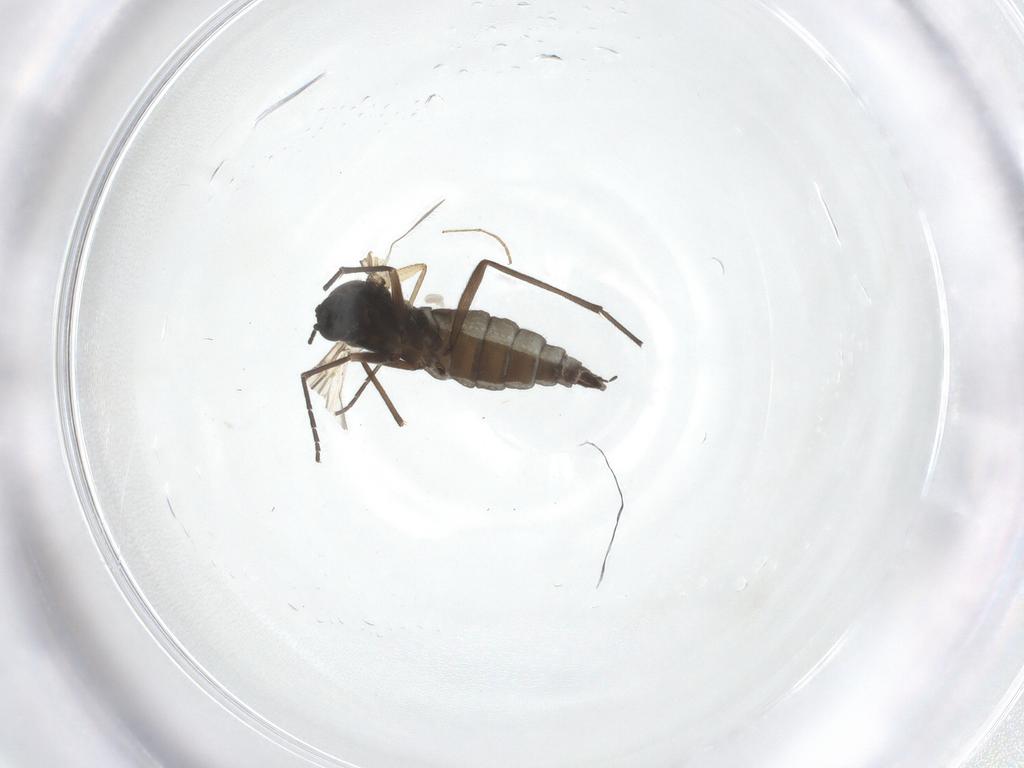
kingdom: Animalia
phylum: Arthropoda
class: Insecta
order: Diptera
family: Sciaridae
